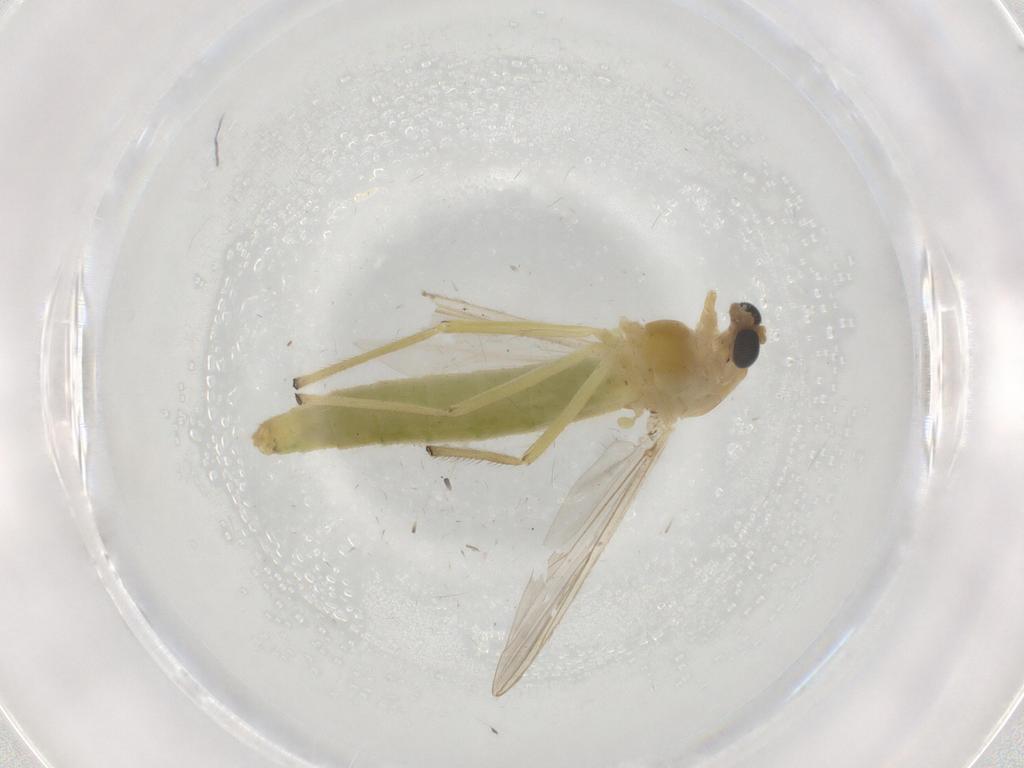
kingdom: Animalia
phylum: Arthropoda
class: Insecta
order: Diptera
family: Chironomidae
